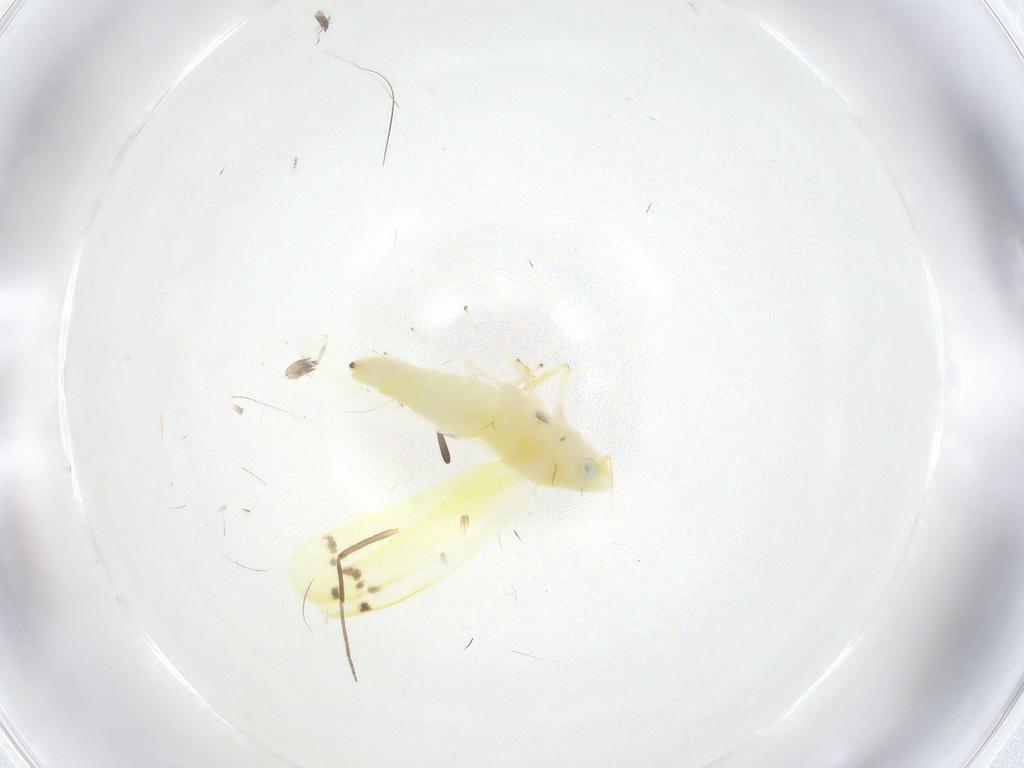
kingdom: Animalia
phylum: Arthropoda
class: Insecta
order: Hemiptera
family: Cicadellidae
